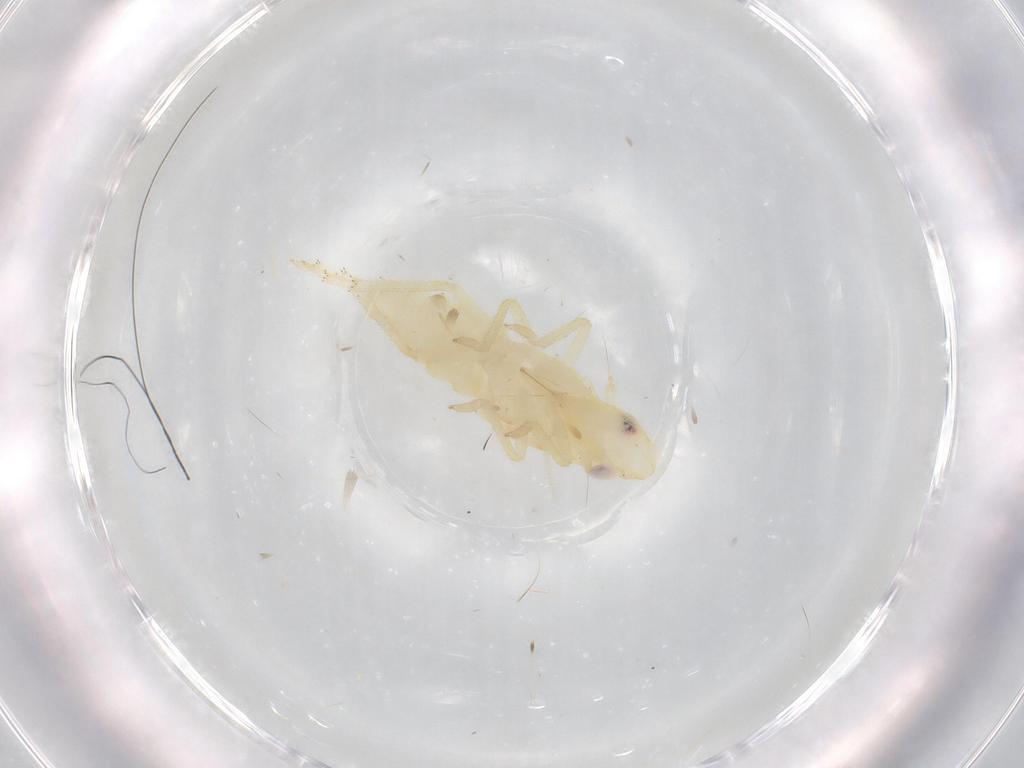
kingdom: Animalia
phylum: Arthropoda
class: Insecta
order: Hemiptera
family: Tropiduchidae
